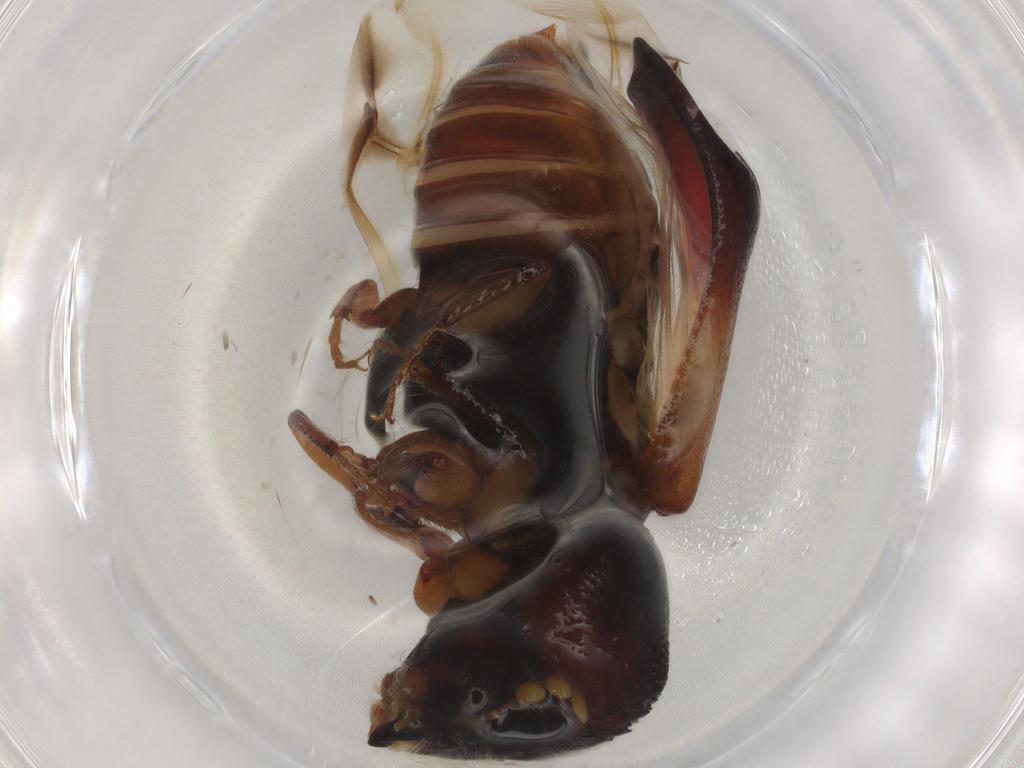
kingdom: Animalia
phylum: Arthropoda
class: Insecta
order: Coleoptera
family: Bostrichidae
